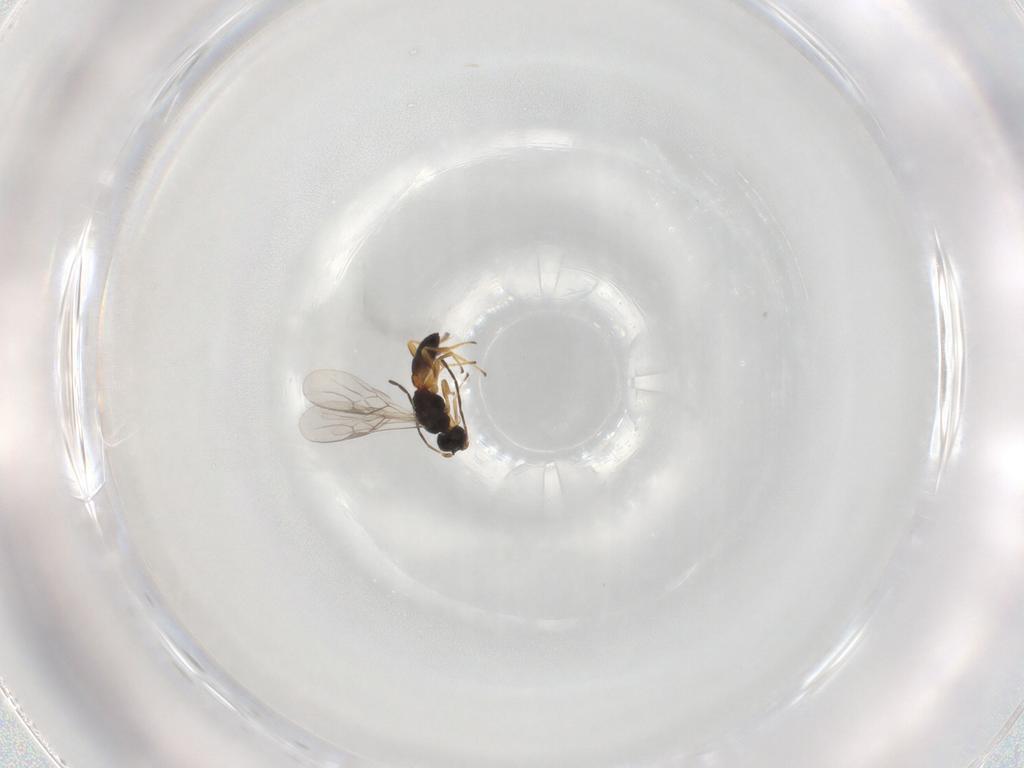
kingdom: Animalia
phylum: Arthropoda
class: Insecta
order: Hymenoptera
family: Braconidae
